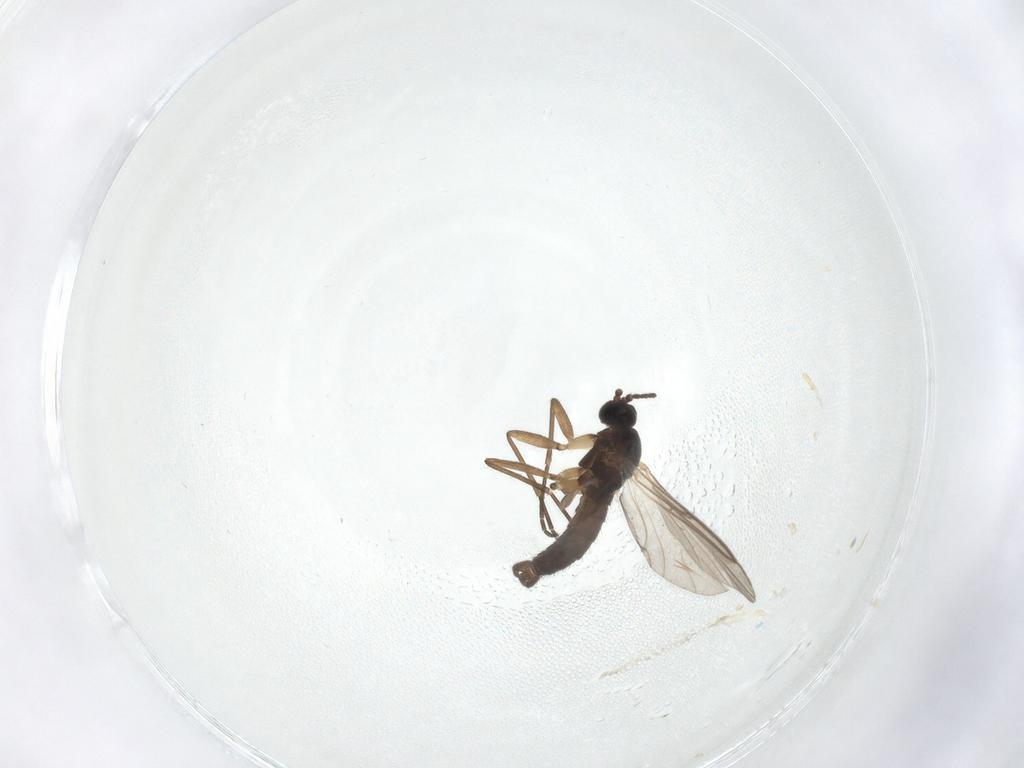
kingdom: Animalia
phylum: Arthropoda
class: Insecta
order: Diptera
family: Sciaridae
